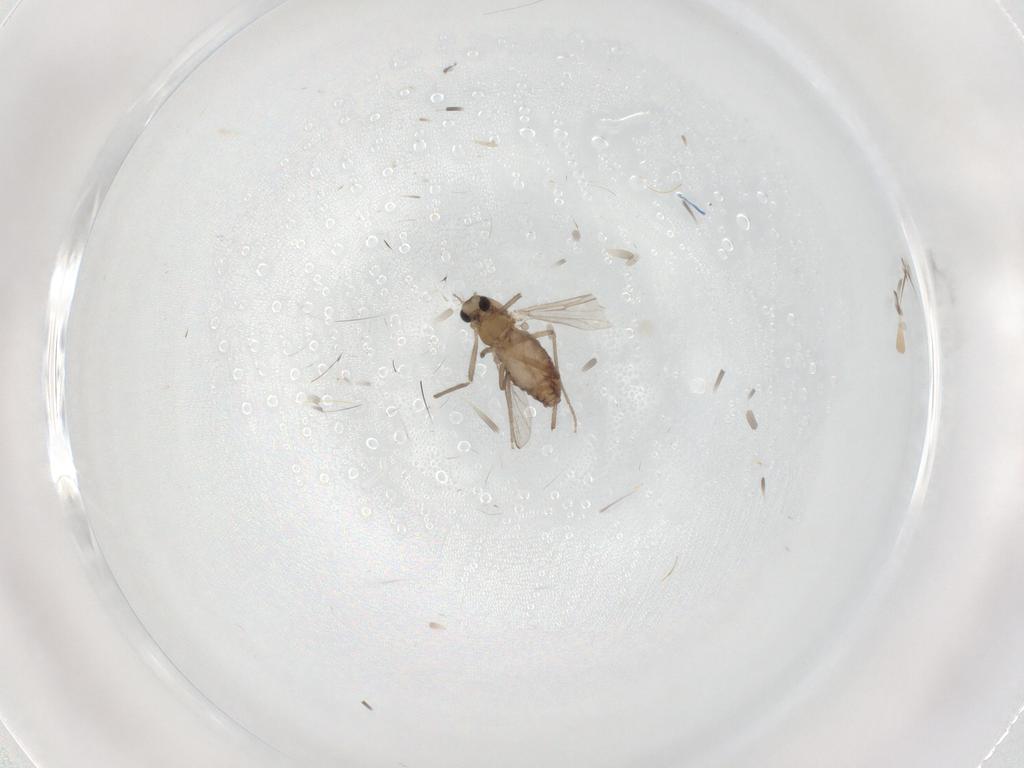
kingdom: Animalia
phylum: Arthropoda
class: Insecta
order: Diptera
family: Chironomidae
